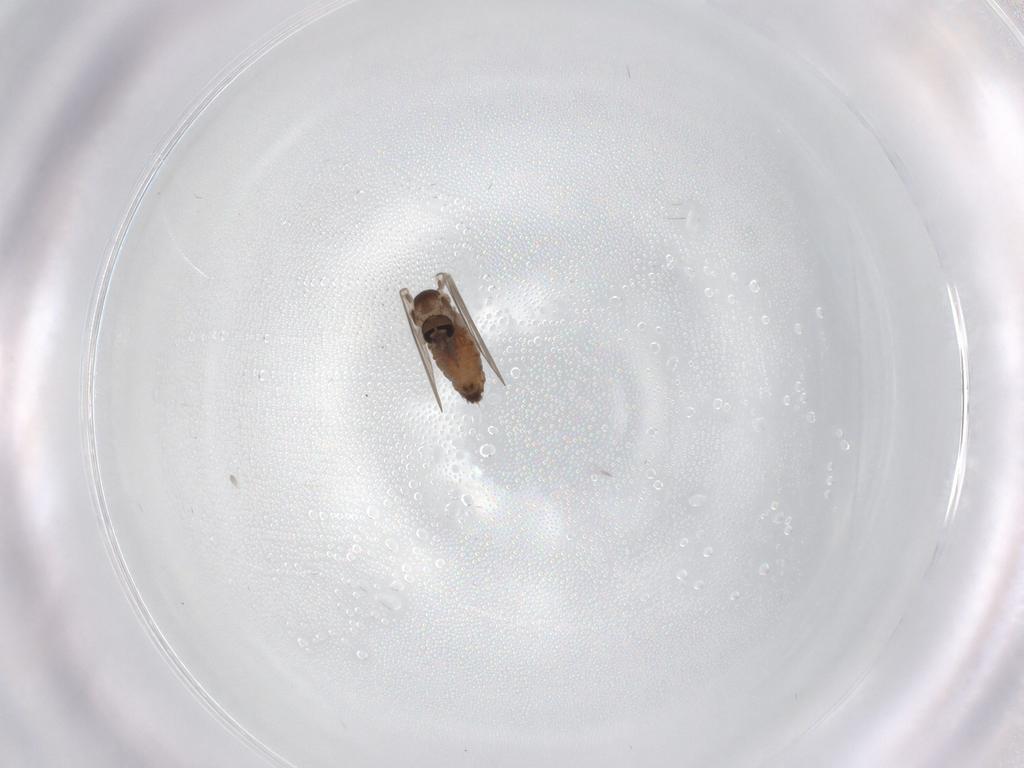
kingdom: Animalia
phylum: Arthropoda
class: Insecta
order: Diptera
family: Psychodidae
